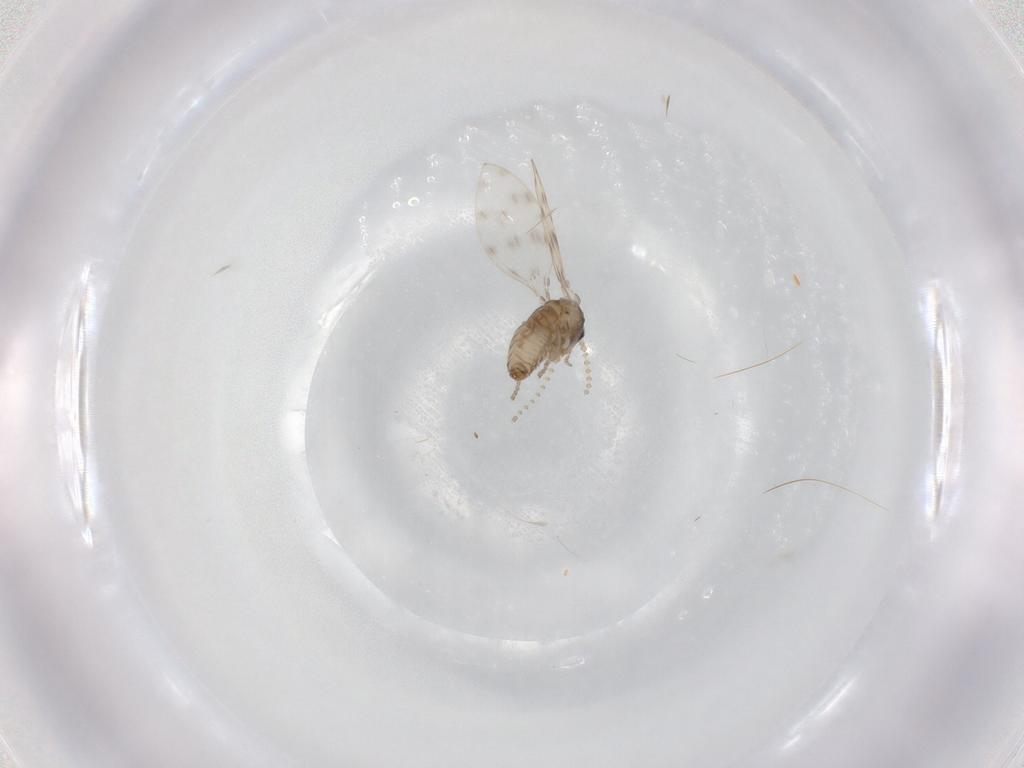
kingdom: Animalia
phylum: Arthropoda
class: Insecta
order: Diptera
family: Psychodidae
